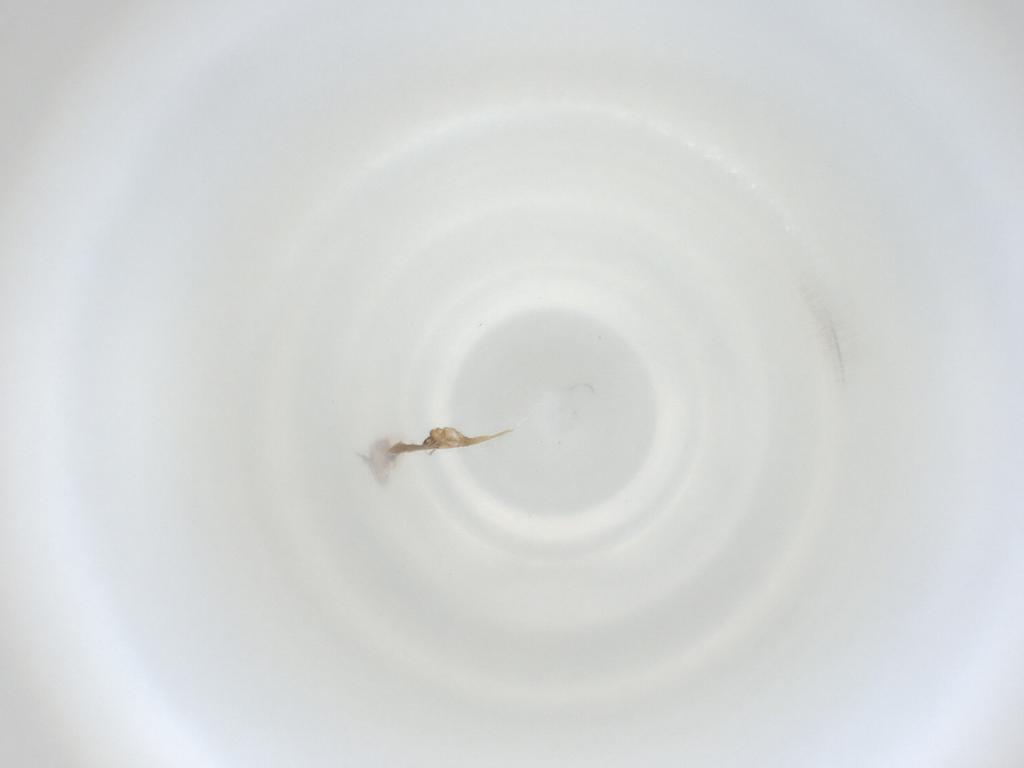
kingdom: Animalia
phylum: Arthropoda
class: Insecta
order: Diptera
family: Cecidomyiidae
